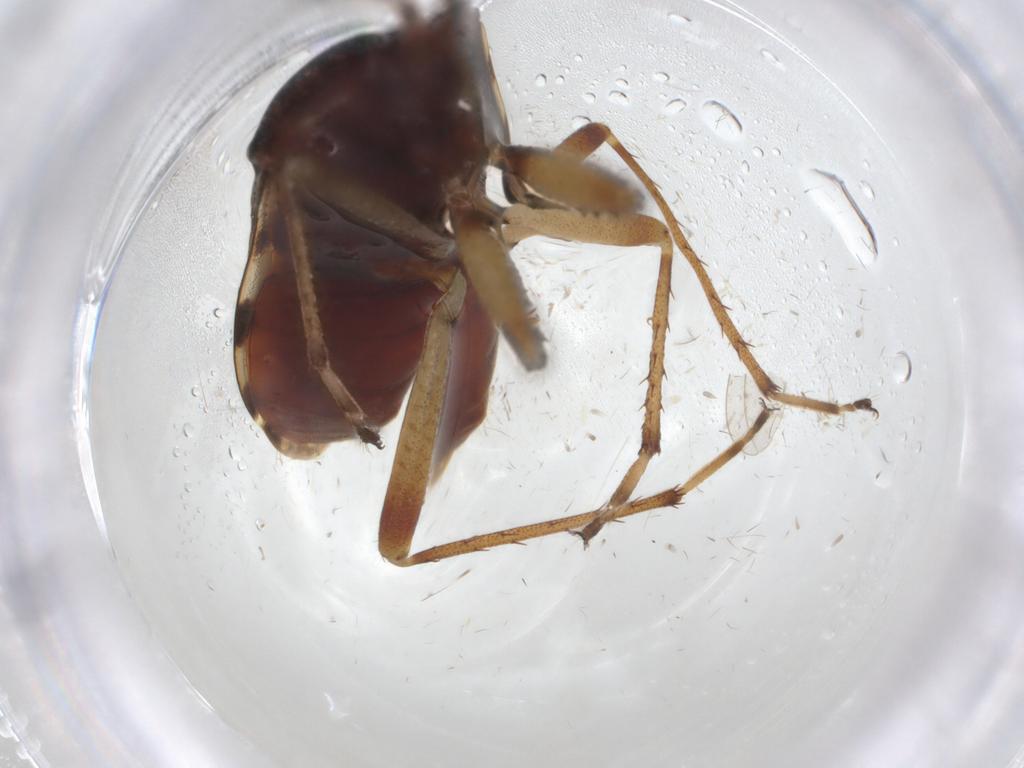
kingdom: Animalia
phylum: Arthropoda
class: Insecta
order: Hemiptera
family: Rhyparochromidae
